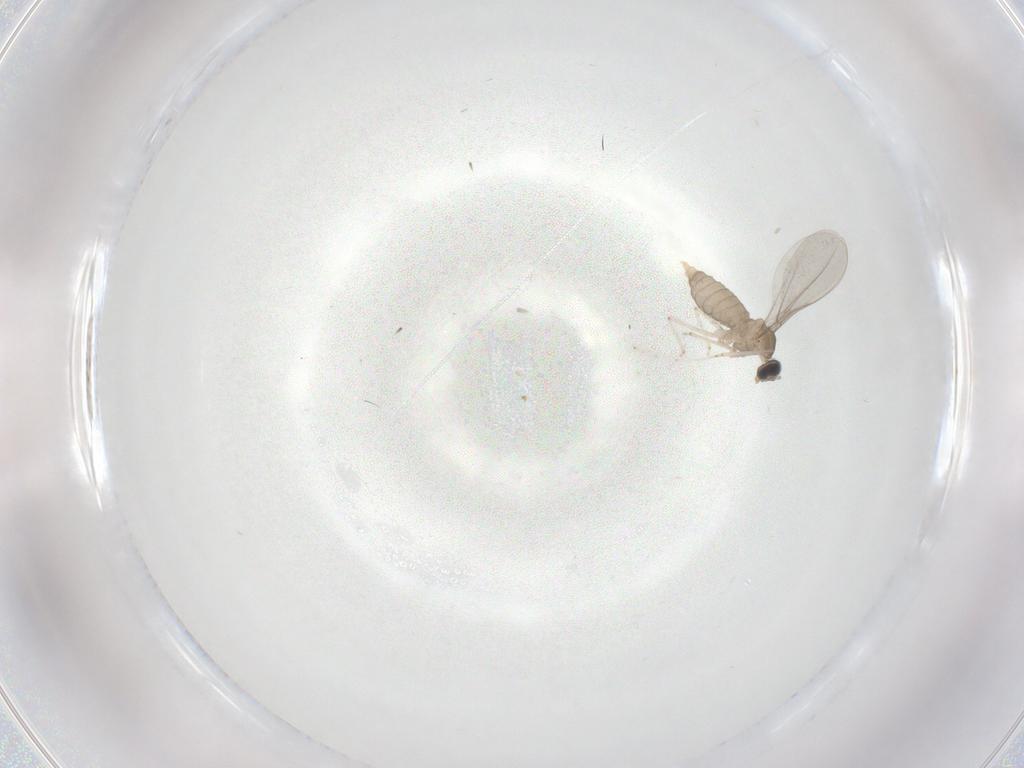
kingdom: Animalia
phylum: Arthropoda
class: Insecta
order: Diptera
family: Cecidomyiidae
